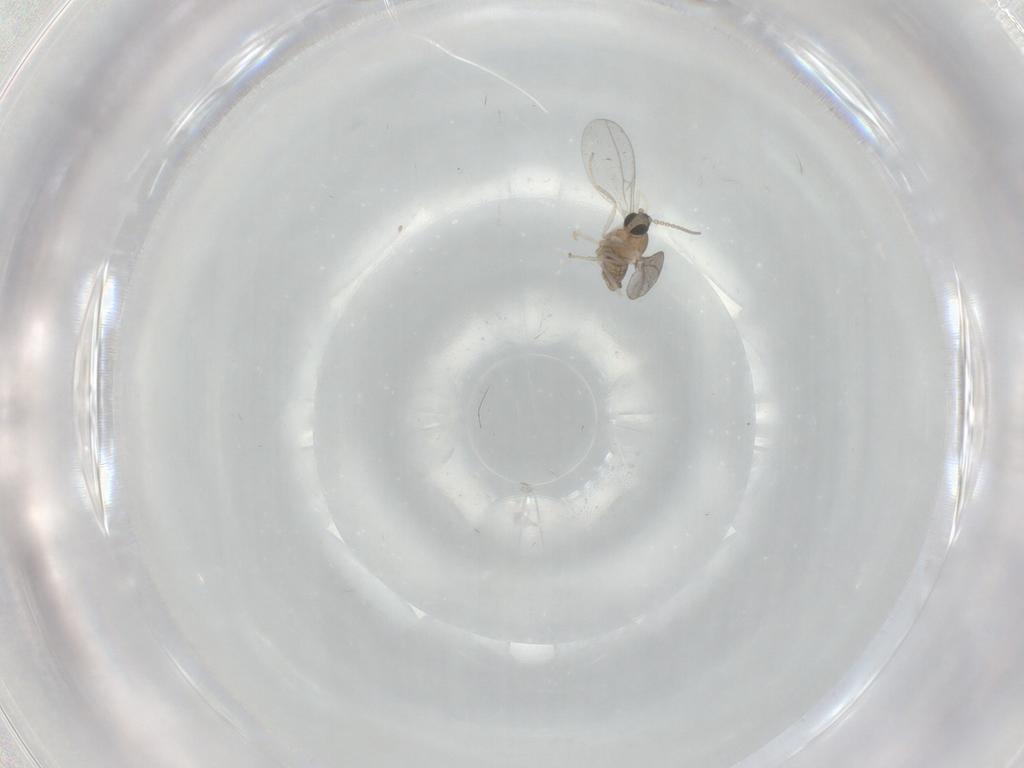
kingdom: Animalia
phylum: Arthropoda
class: Insecta
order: Diptera
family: Cecidomyiidae
